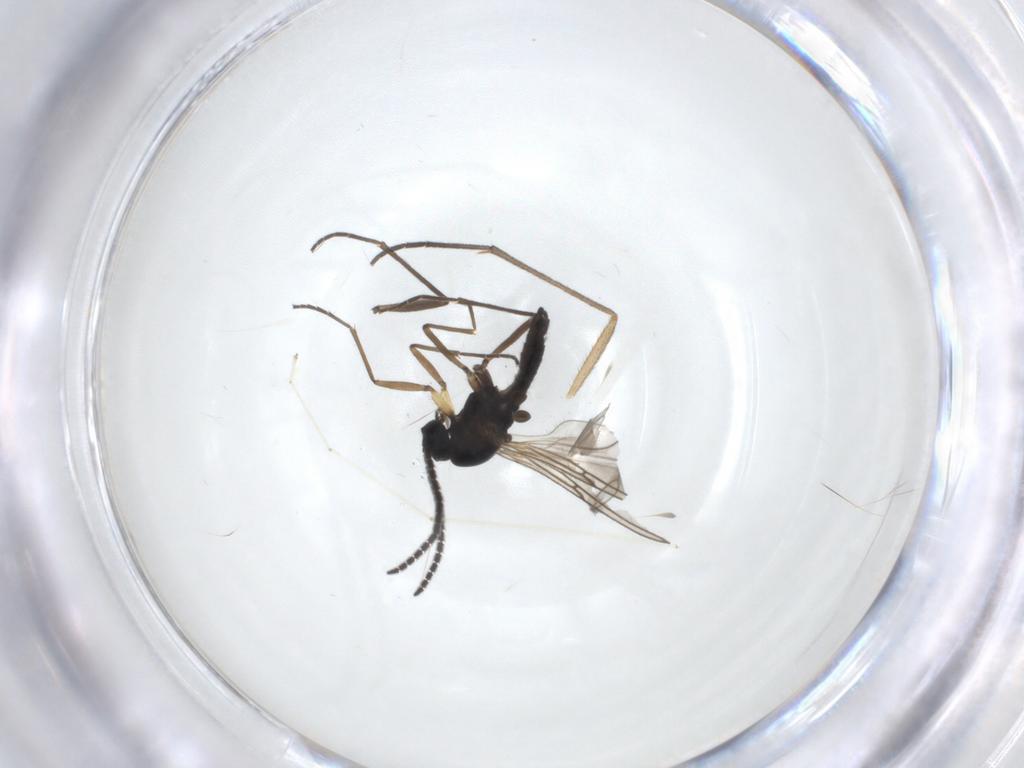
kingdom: Animalia
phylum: Arthropoda
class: Insecta
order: Diptera
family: Sciaridae
